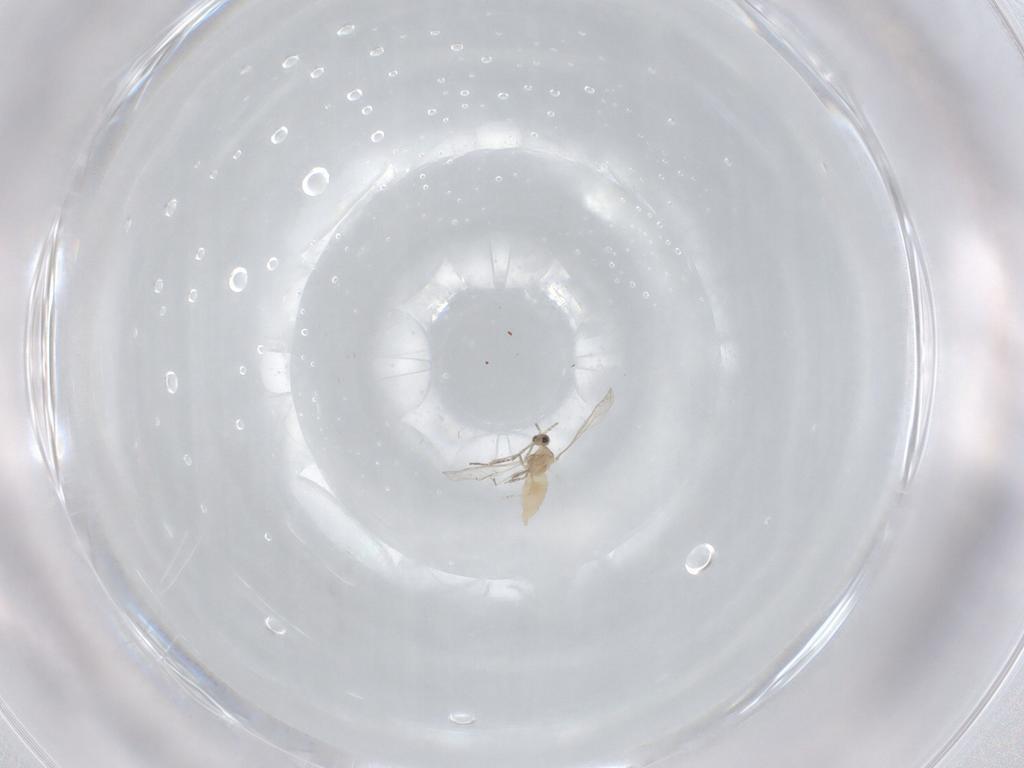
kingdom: Animalia
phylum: Arthropoda
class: Insecta
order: Diptera
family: Cecidomyiidae
